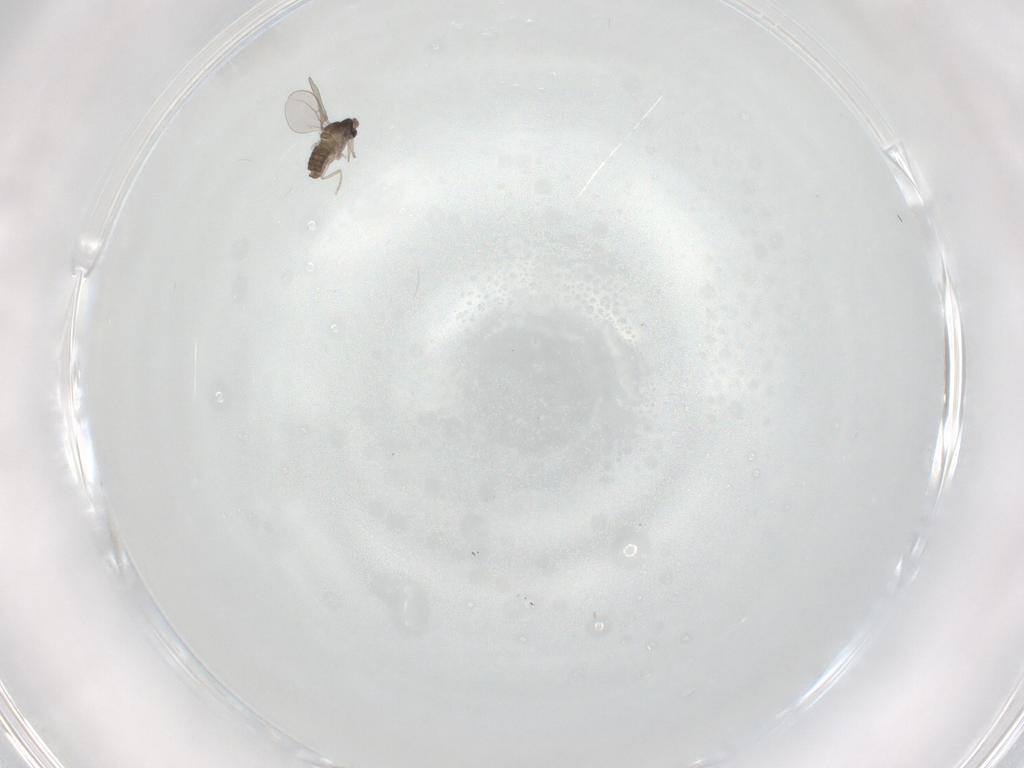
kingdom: Animalia
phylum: Arthropoda
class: Insecta
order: Diptera
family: Cecidomyiidae
